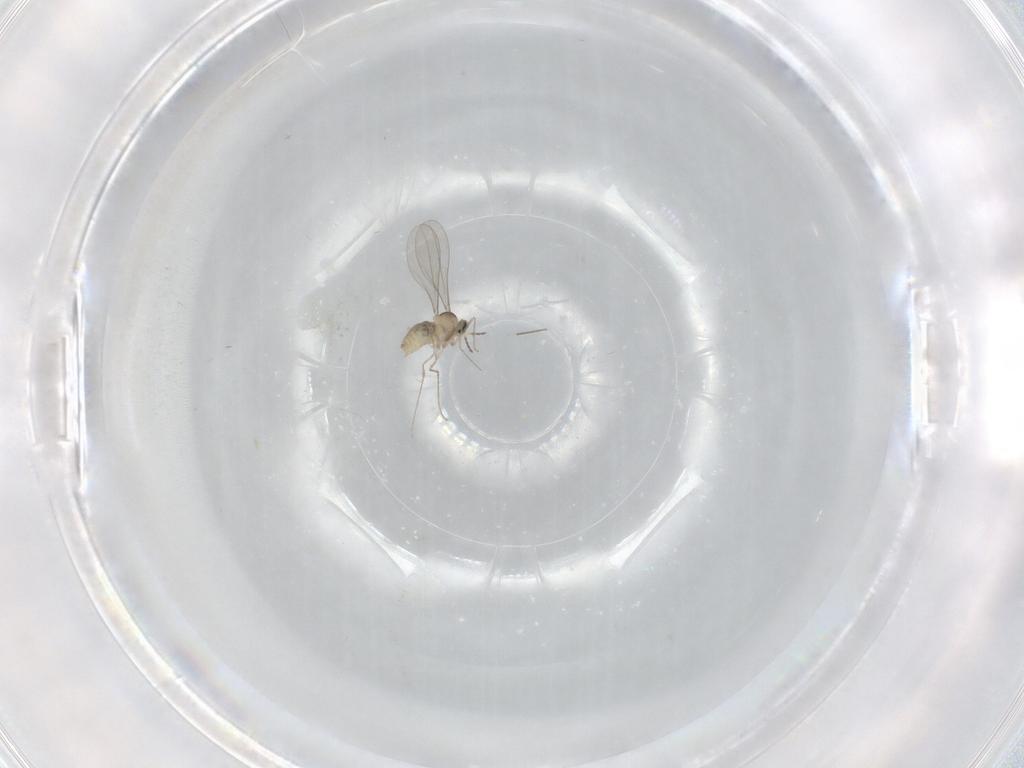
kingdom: Animalia
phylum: Arthropoda
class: Insecta
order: Diptera
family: Cecidomyiidae
